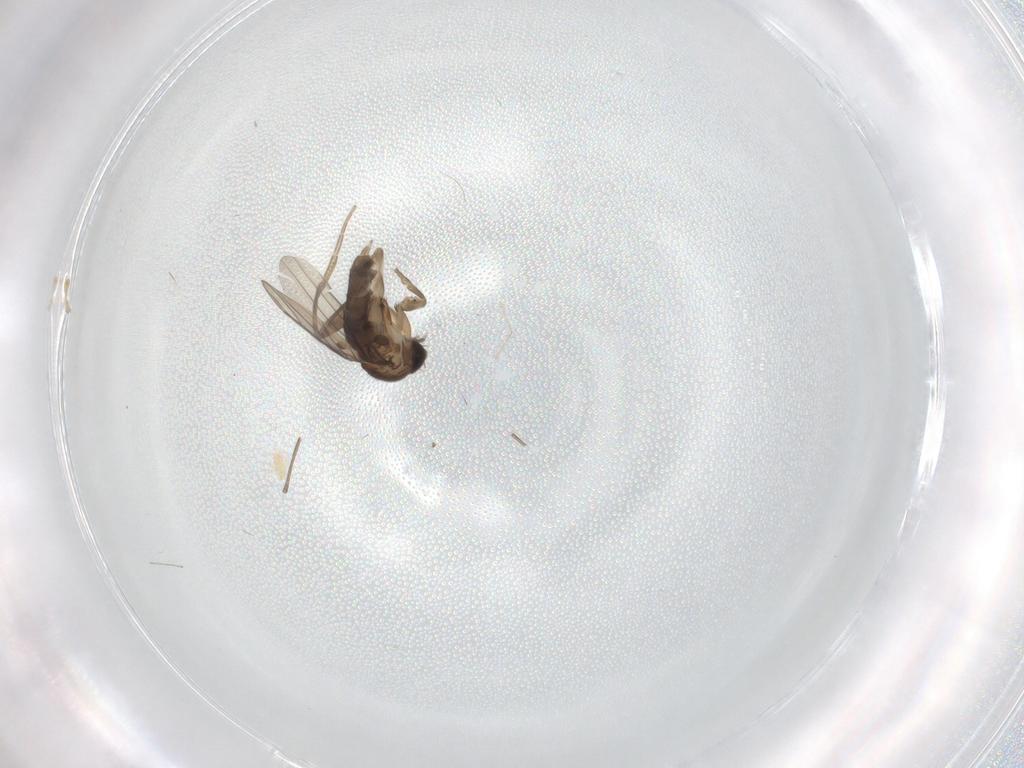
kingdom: Animalia
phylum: Arthropoda
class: Insecta
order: Diptera
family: Psychodidae
